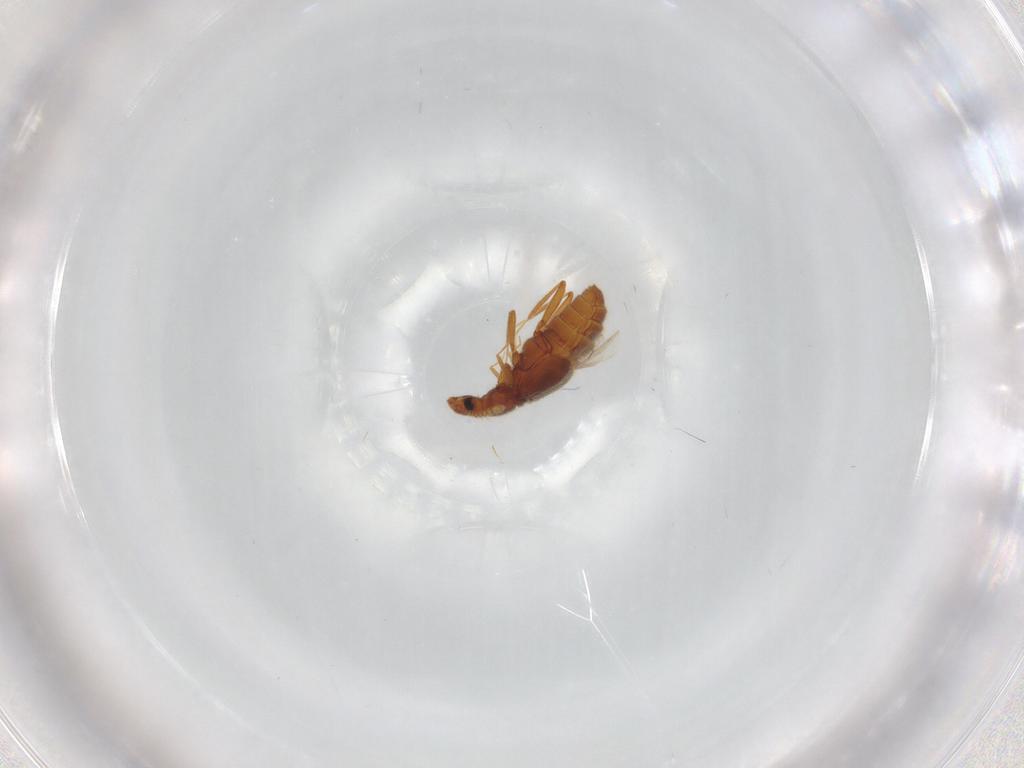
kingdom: Animalia
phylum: Arthropoda
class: Insecta
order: Coleoptera
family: Staphylinidae
